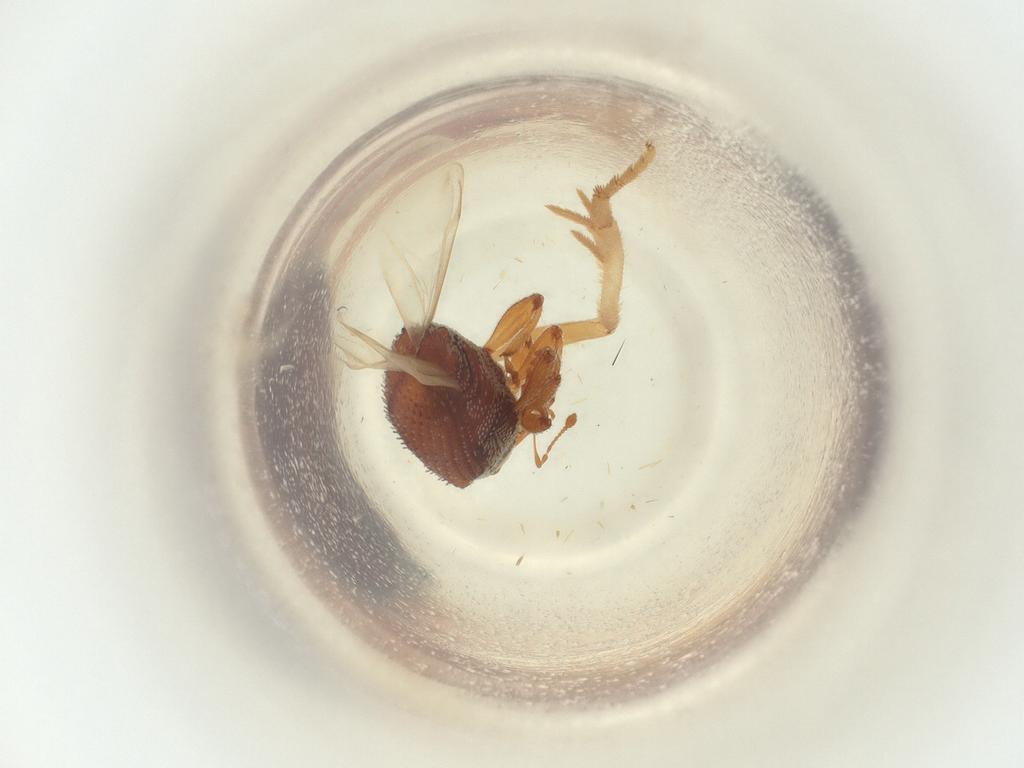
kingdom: Animalia
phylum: Arthropoda
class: Insecta
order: Lepidoptera
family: Tortricidae
